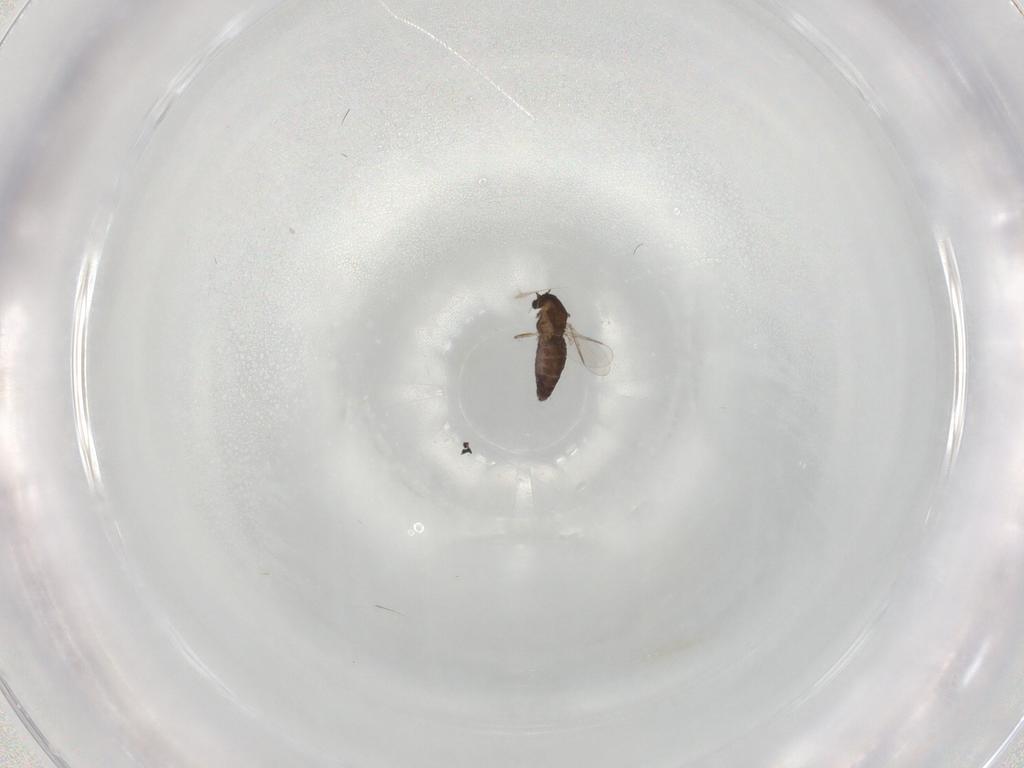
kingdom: Animalia
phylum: Arthropoda
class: Insecta
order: Diptera
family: Chironomidae
